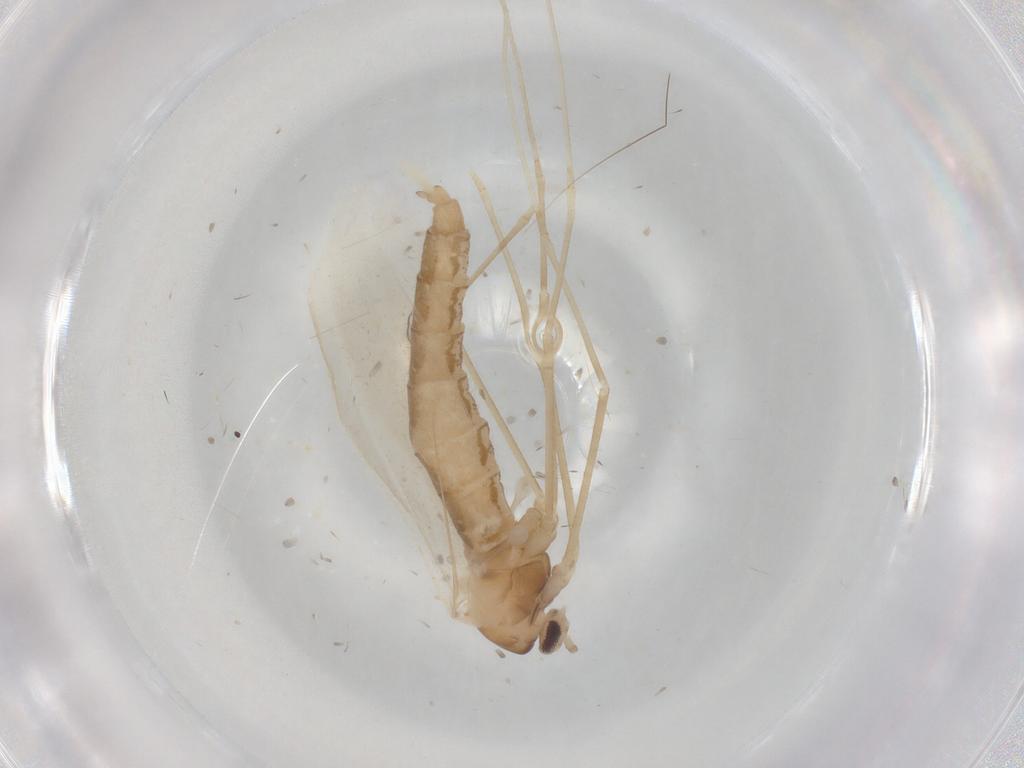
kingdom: Animalia
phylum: Arthropoda
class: Insecta
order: Diptera
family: Cecidomyiidae
